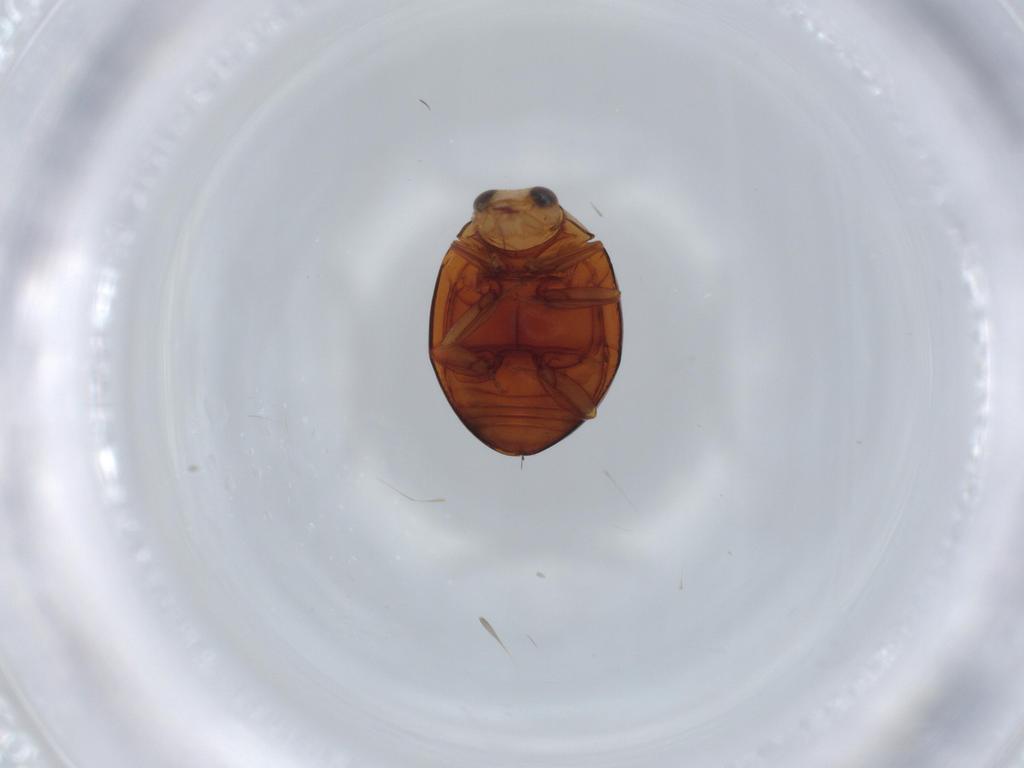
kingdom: Animalia
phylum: Arthropoda
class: Insecta
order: Coleoptera
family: Coccinellidae
